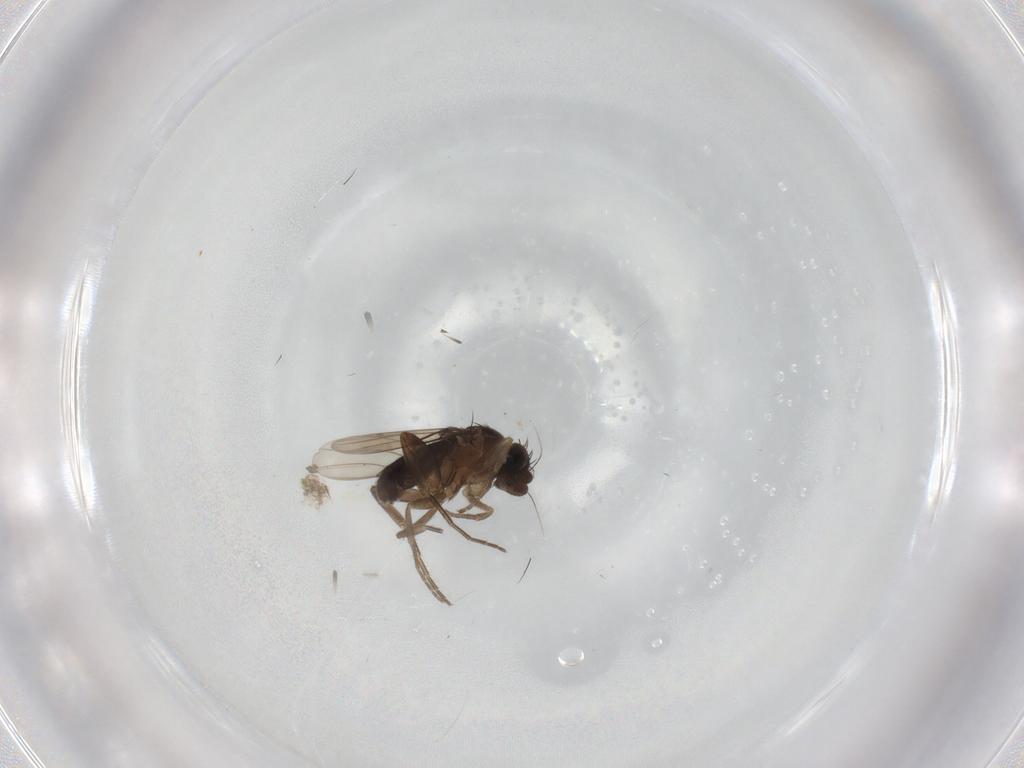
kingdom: Animalia
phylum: Arthropoda
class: Insecta
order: Diptera
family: Phoridae
